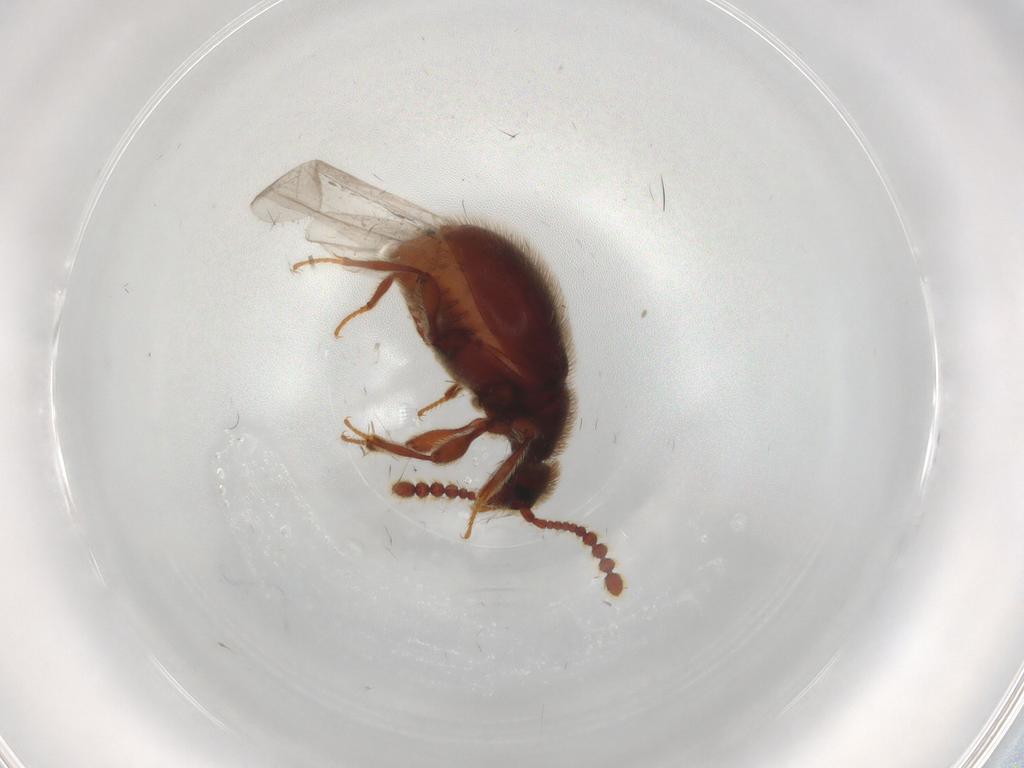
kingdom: Animalia
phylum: Arthropoda
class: Insecta
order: Coleoptera
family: Staphylinidae
